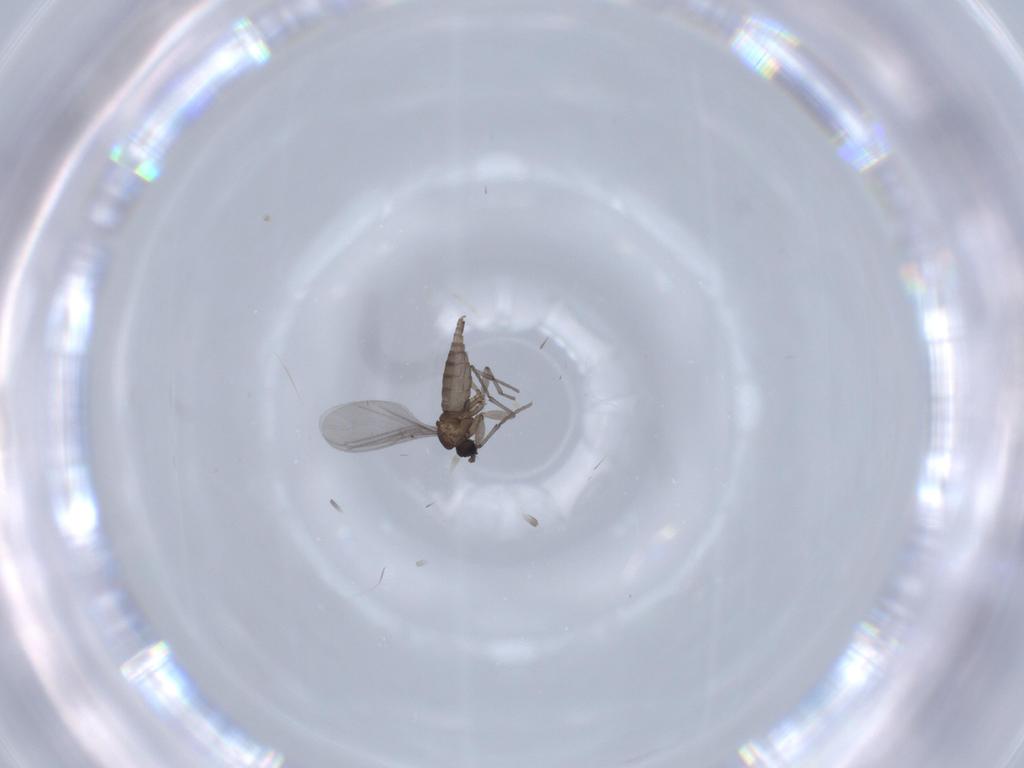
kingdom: Animalia
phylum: Arthropoda
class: Insecta
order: Diptera
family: Sciaridae
